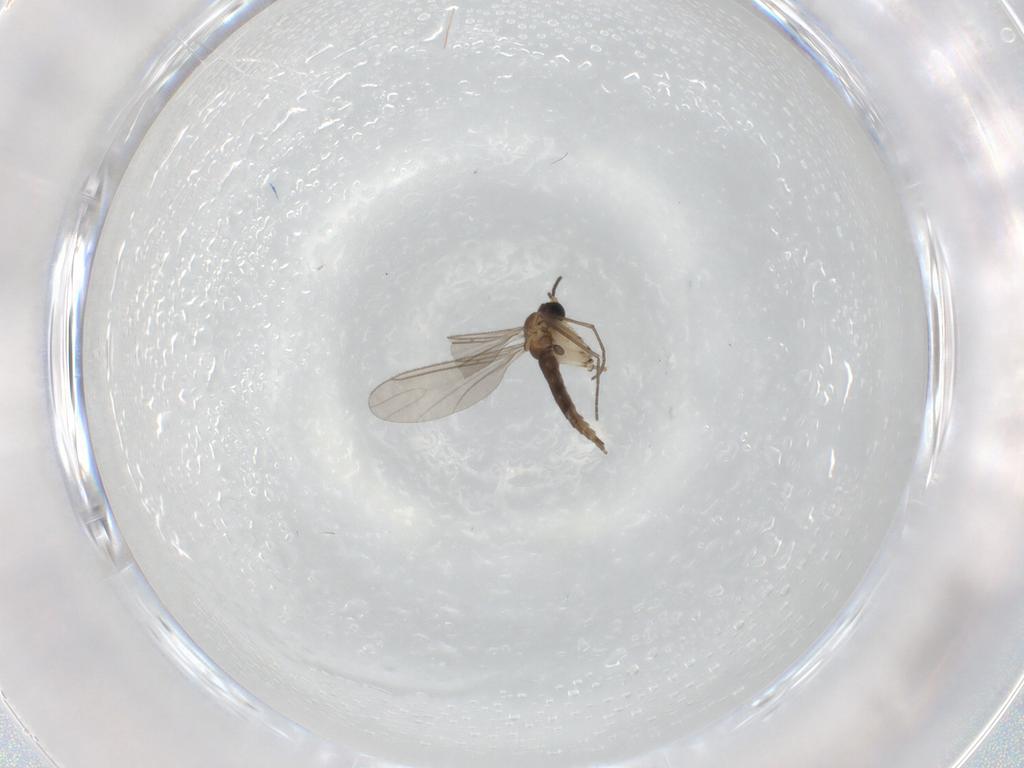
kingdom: Animalia
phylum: Arthropoda
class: Insecta
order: Diptera
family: Sciaridae
